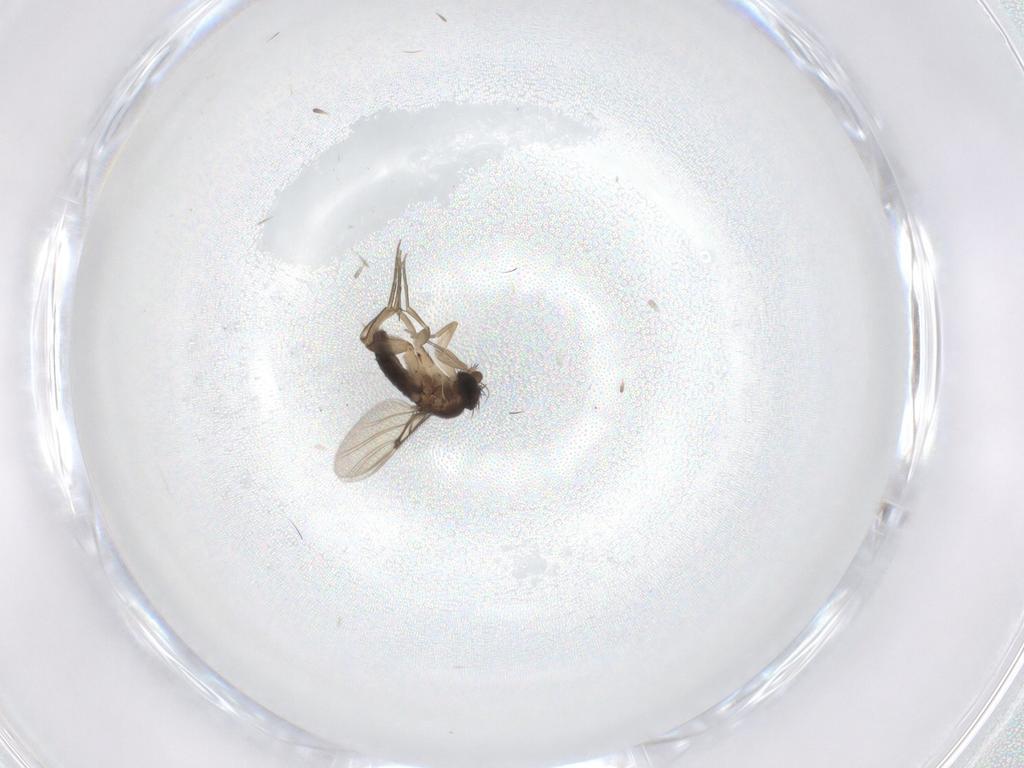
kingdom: Animalia
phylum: Arthropoda
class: Insecta
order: Diptera
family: Phoridae
